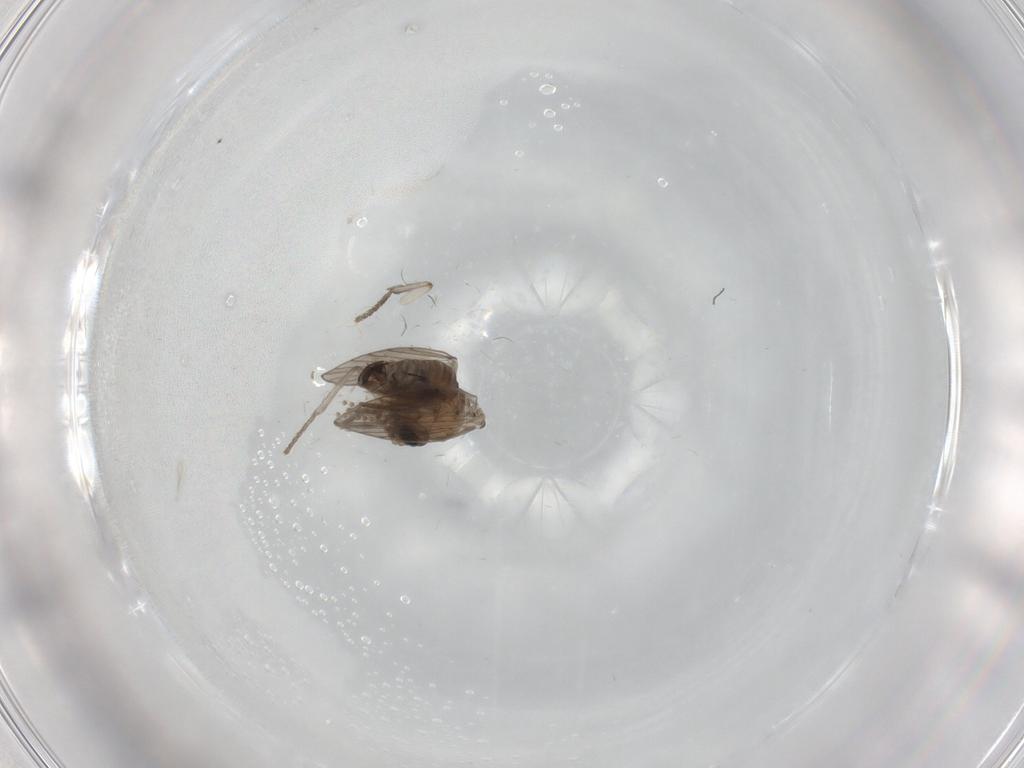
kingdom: Animalia
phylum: Arthropoda
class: Insecta
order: Diptera
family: Psychodidae
